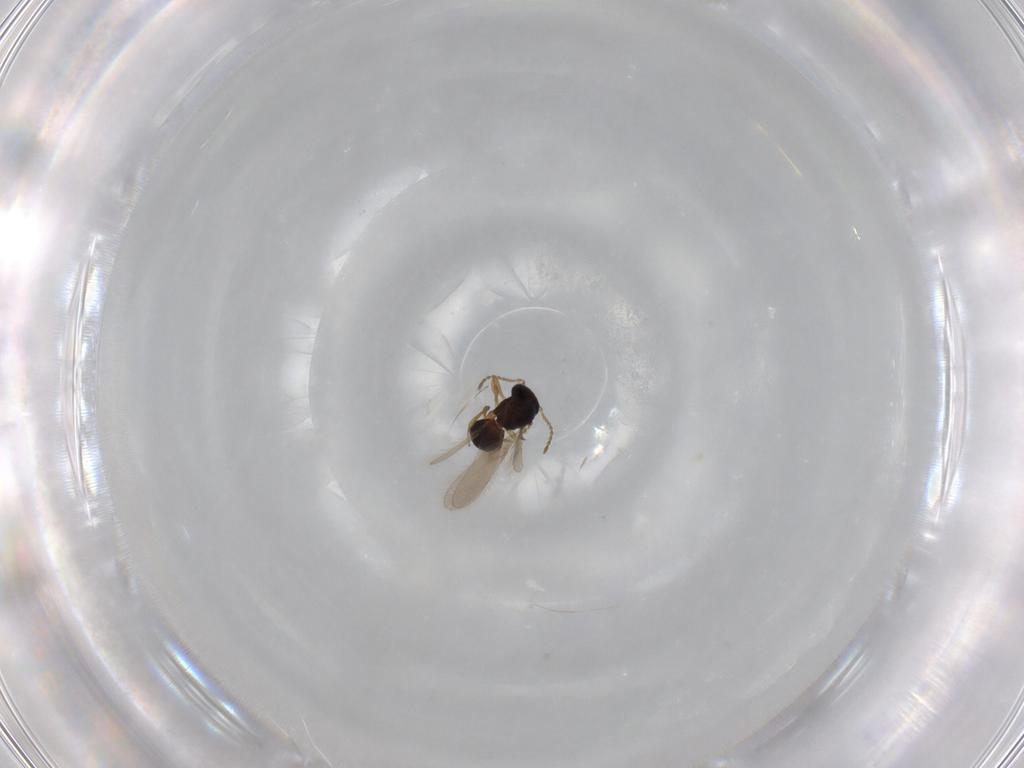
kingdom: Animalia
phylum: Arthropoda
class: Insecta
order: Hymenoptera
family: Scelionidae
